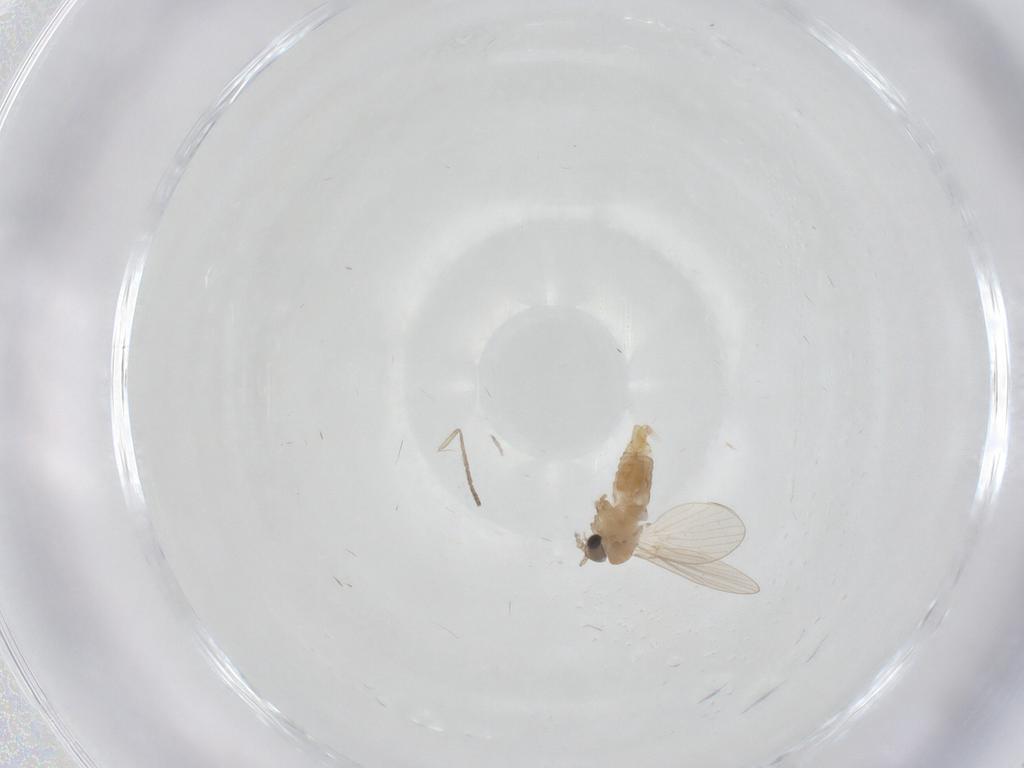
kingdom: Animalia
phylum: Arthropoda
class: Insecta
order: Diptera
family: Psychodidae
